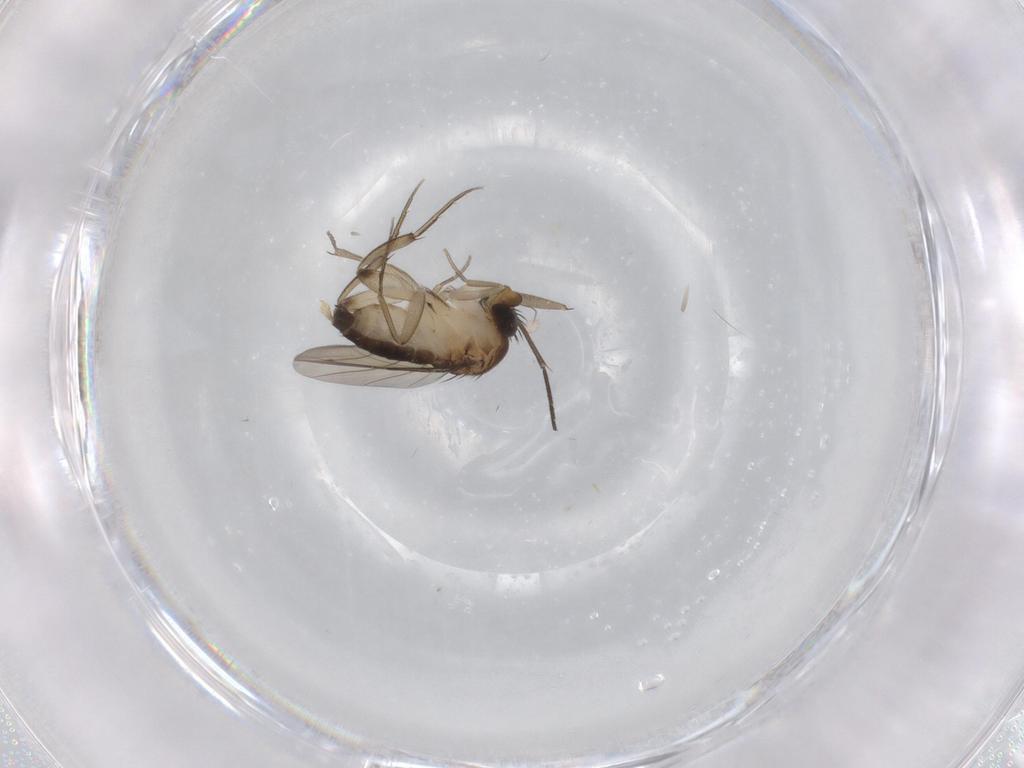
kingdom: Animalia
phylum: Arthropoda
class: Insecta
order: Diptera
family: Phoridae
